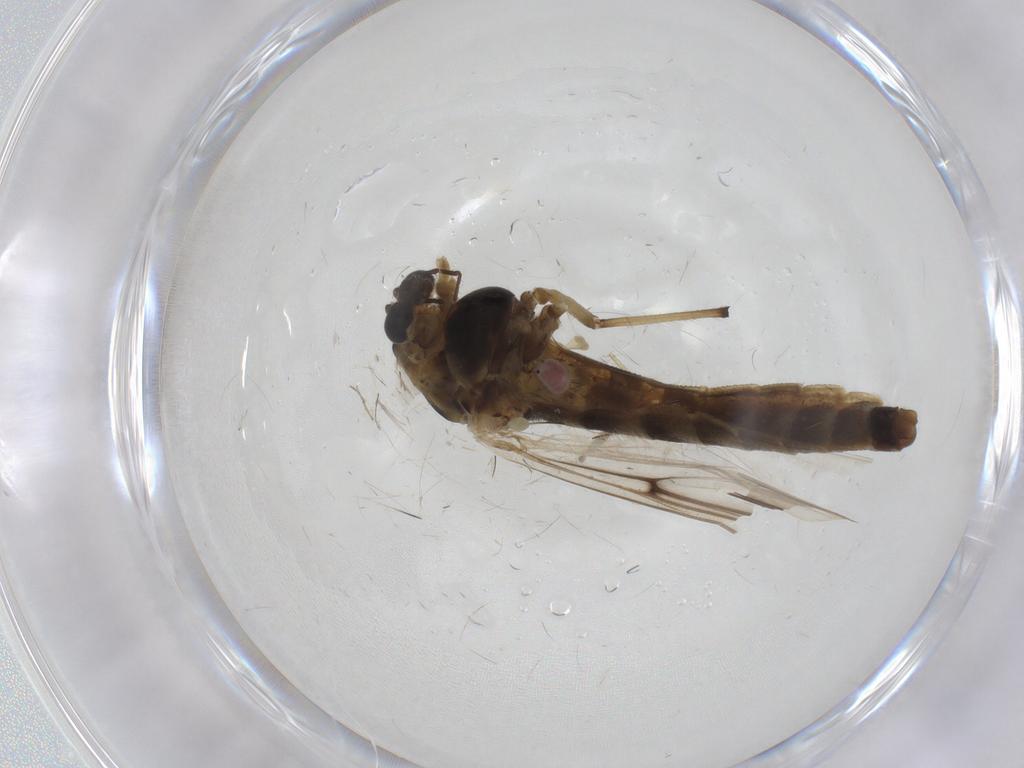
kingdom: Animalia
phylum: Arthropoda
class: Insecta
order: Diptera
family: Chironomidae
